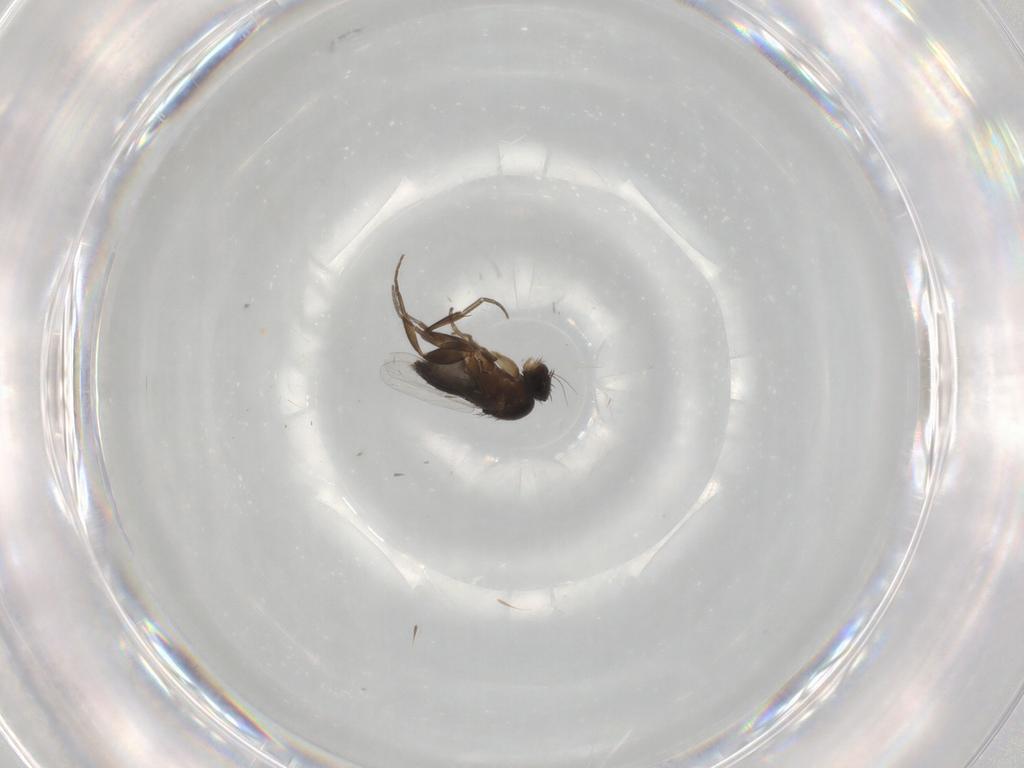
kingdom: Animalia
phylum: Arthropoda
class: Insecta
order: Diptera
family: Phoridae
